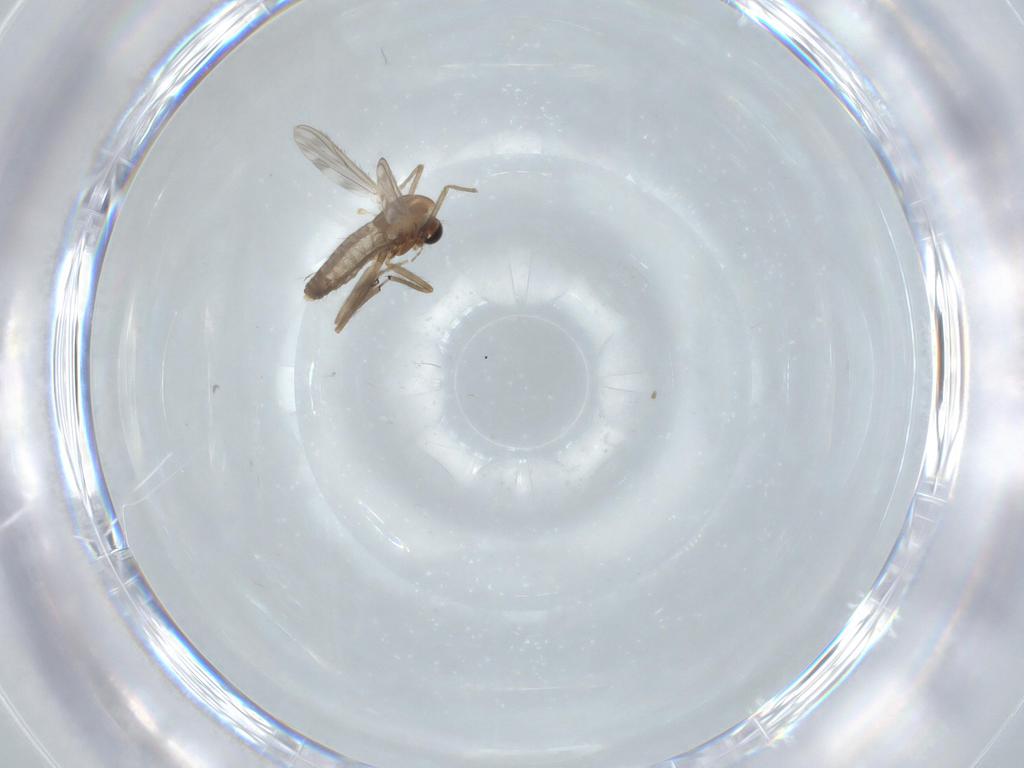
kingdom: Animalia
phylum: Arthropoda
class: Insecta
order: Diptera
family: Chironomidae
